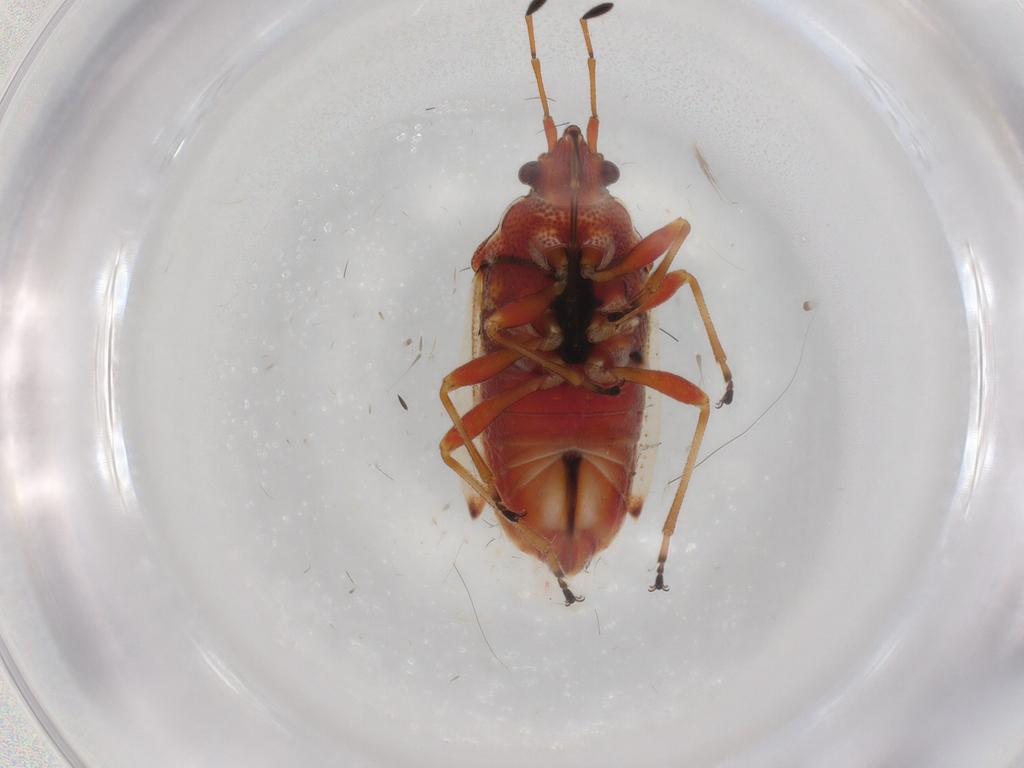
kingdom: Animalia
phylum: Arthropoda
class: Insecta
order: Hemiptera
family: Lygaeidae
